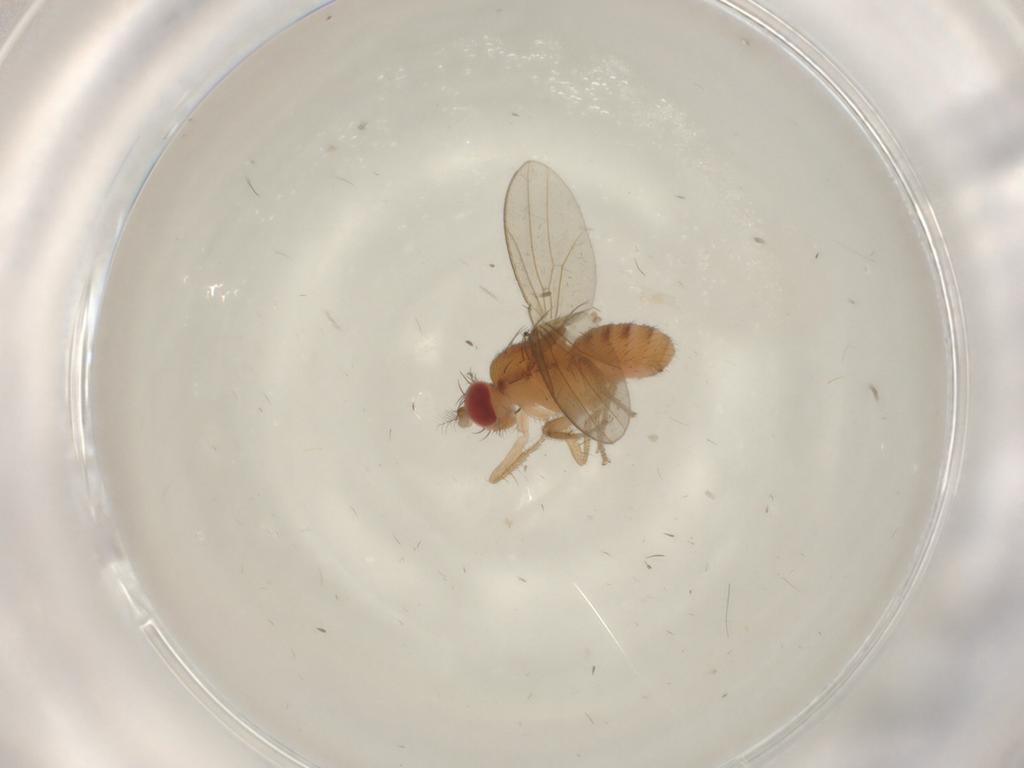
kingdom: Animalia
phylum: Arthropoda
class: Insecta
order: Diptera
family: Drosophilidae
